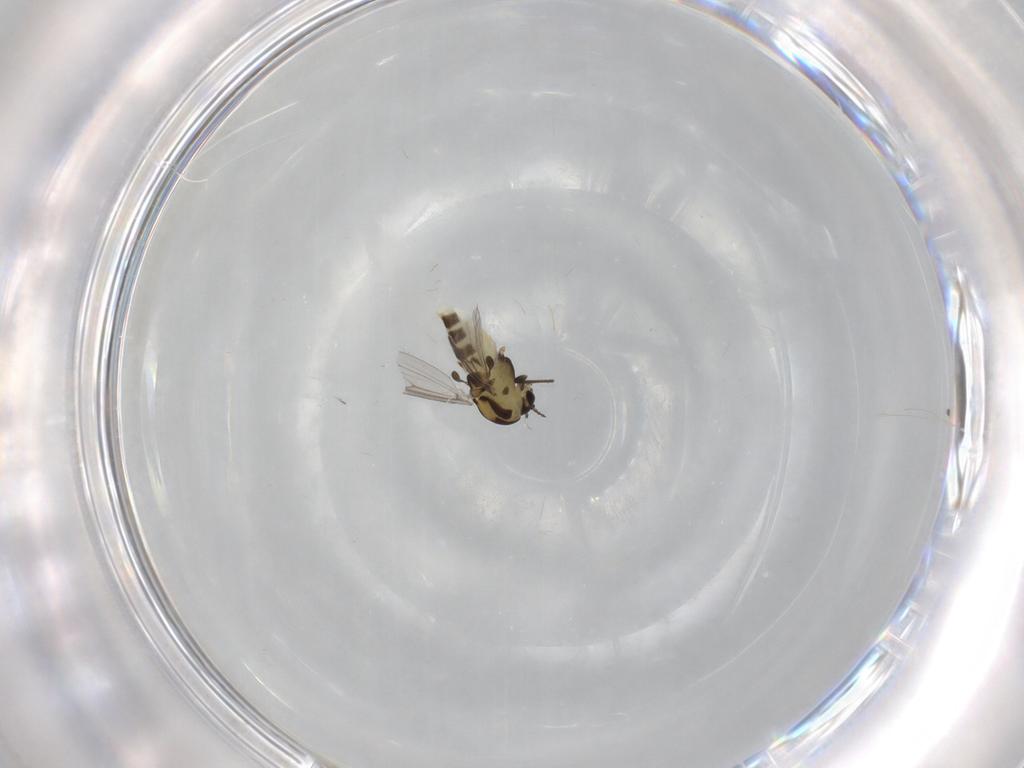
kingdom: Animalia
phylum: Arthropoda
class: Insecta
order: Diptera
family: Chironomidae
